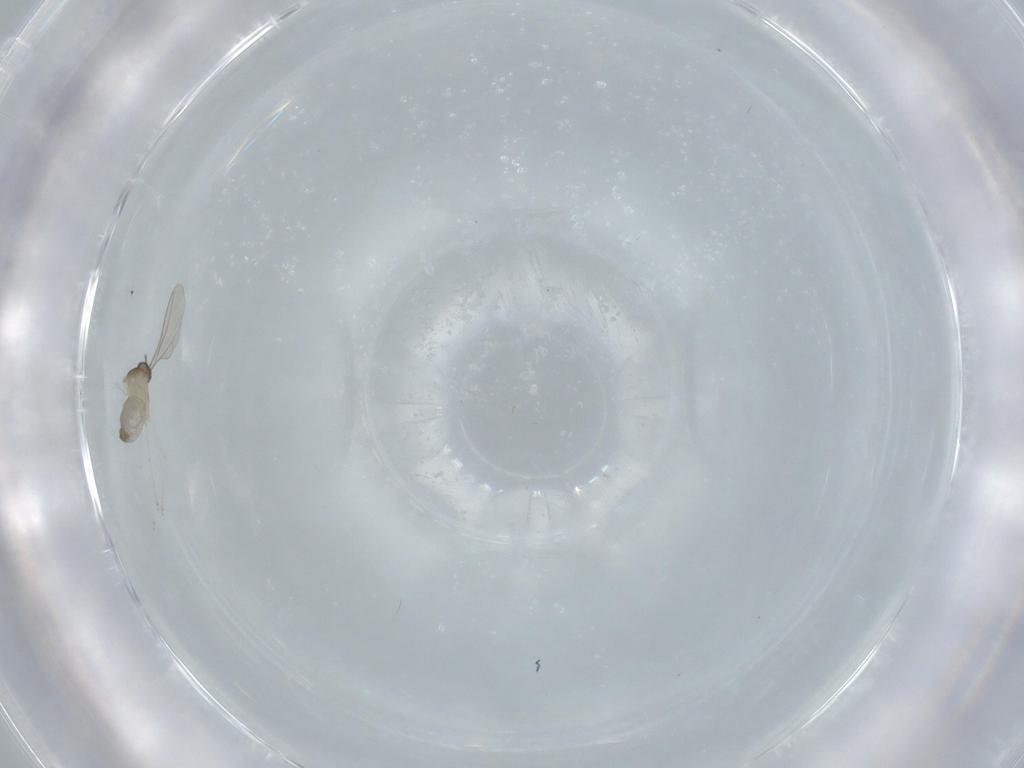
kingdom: Animalia
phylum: Arthropoda
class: Insecta
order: Diptera
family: Cecidomyiidae
